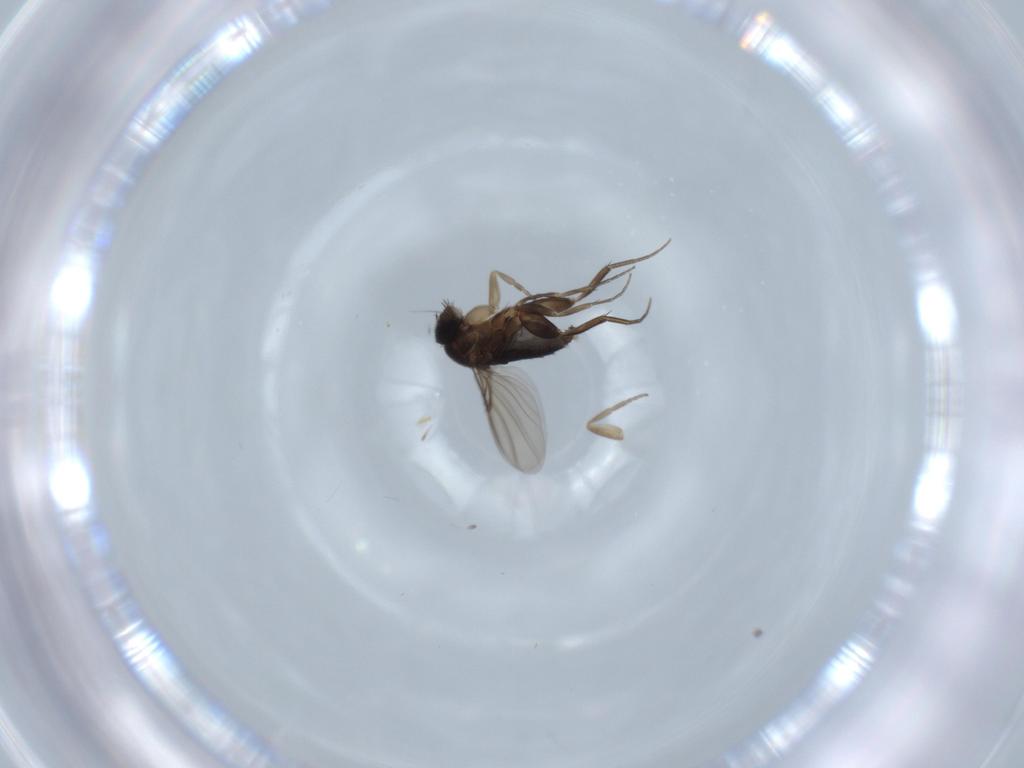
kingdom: Animalia
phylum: Arthropoda
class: Insecta
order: Diptera
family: Phoridae
